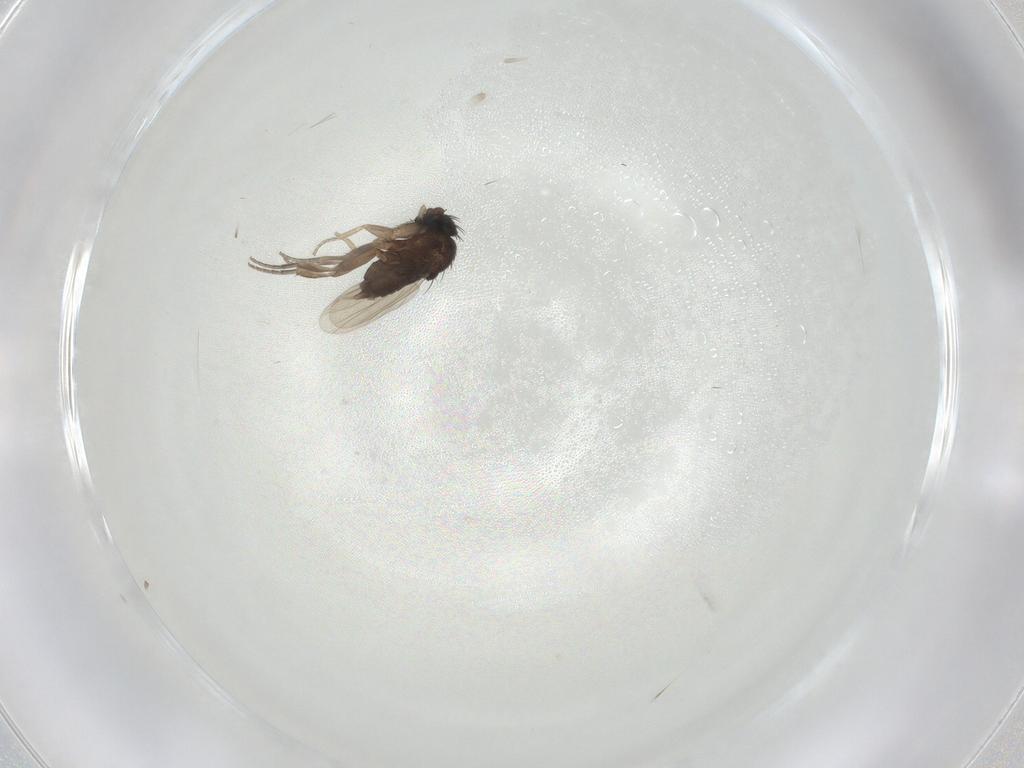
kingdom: Animalia
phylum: Arthropoda
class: Insecta
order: Diptera
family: Phoridae
